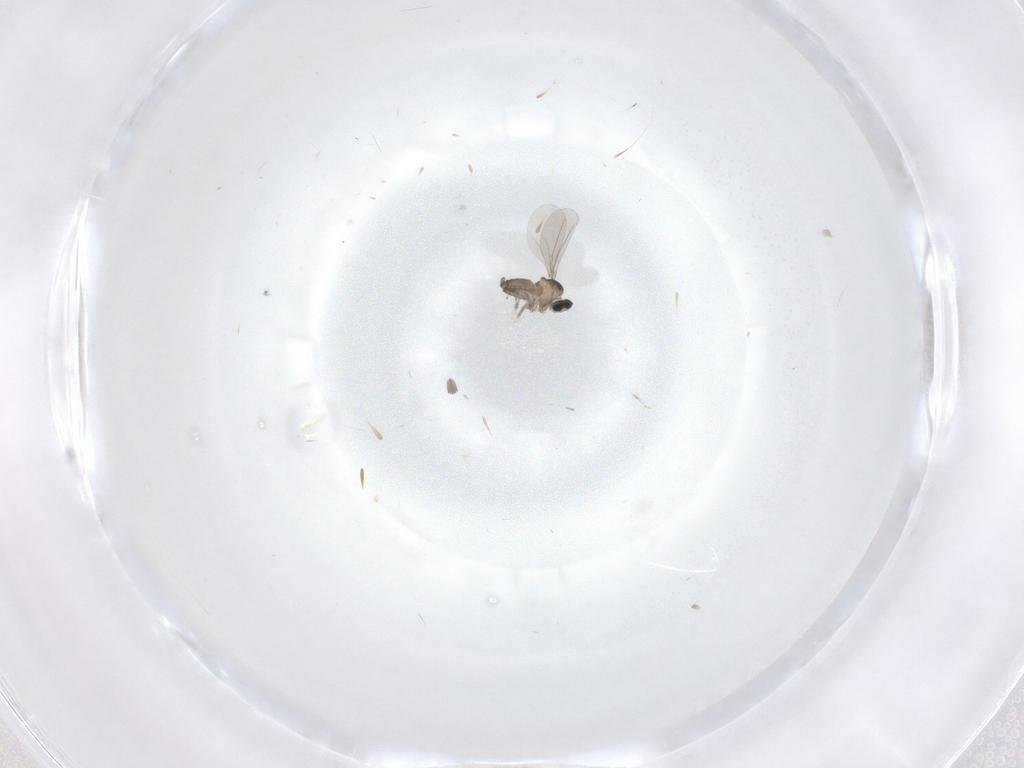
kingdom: Animalia
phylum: Arthropoda
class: Insecta
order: Diptera
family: Cecidomyiidae
